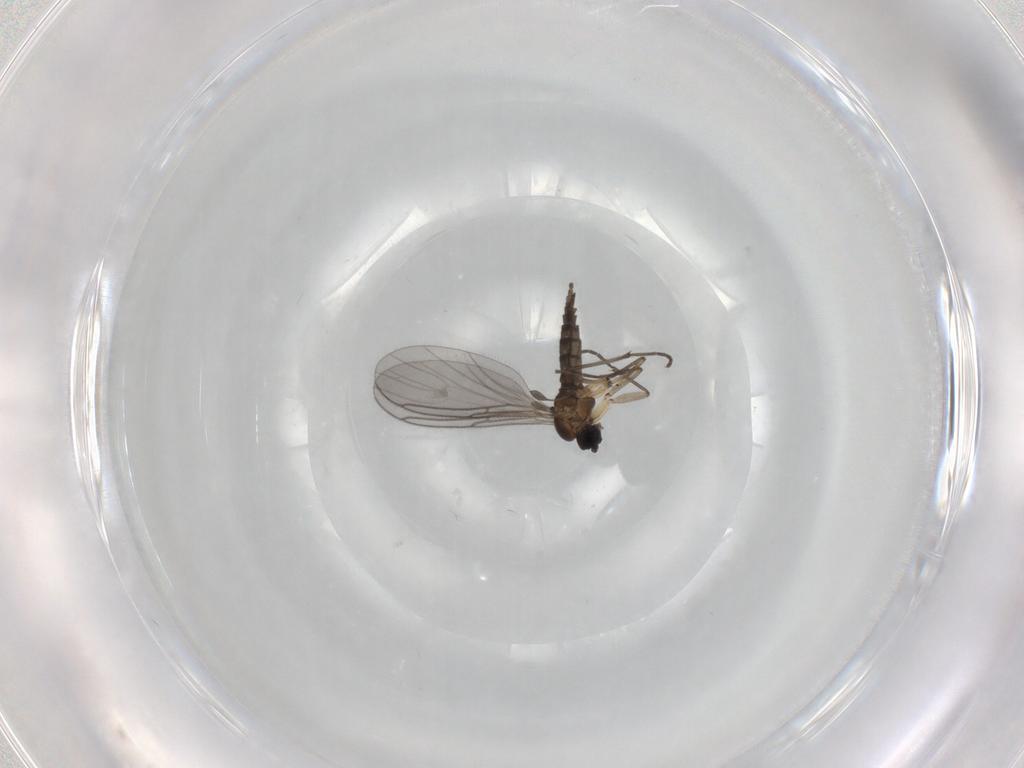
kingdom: Animalia
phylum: Arthropoda
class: Insecta
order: Diptera
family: Sciaridae
